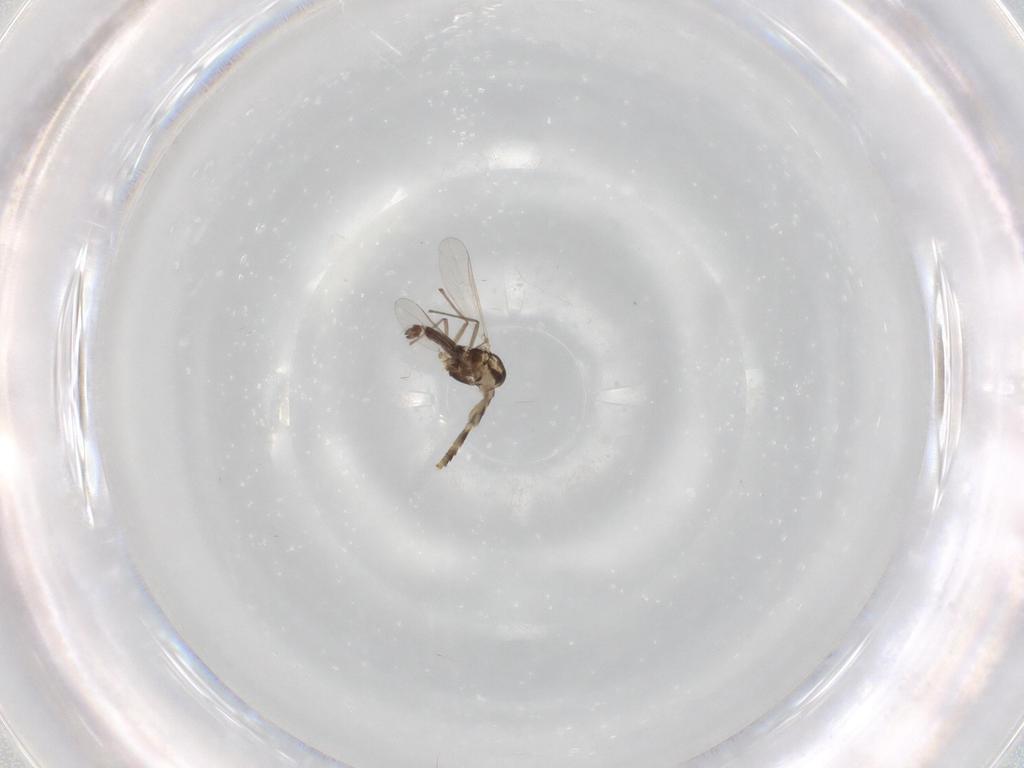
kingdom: Animalia
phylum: Arthropoda
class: Insecta
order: Diptera
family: Chironomidae
